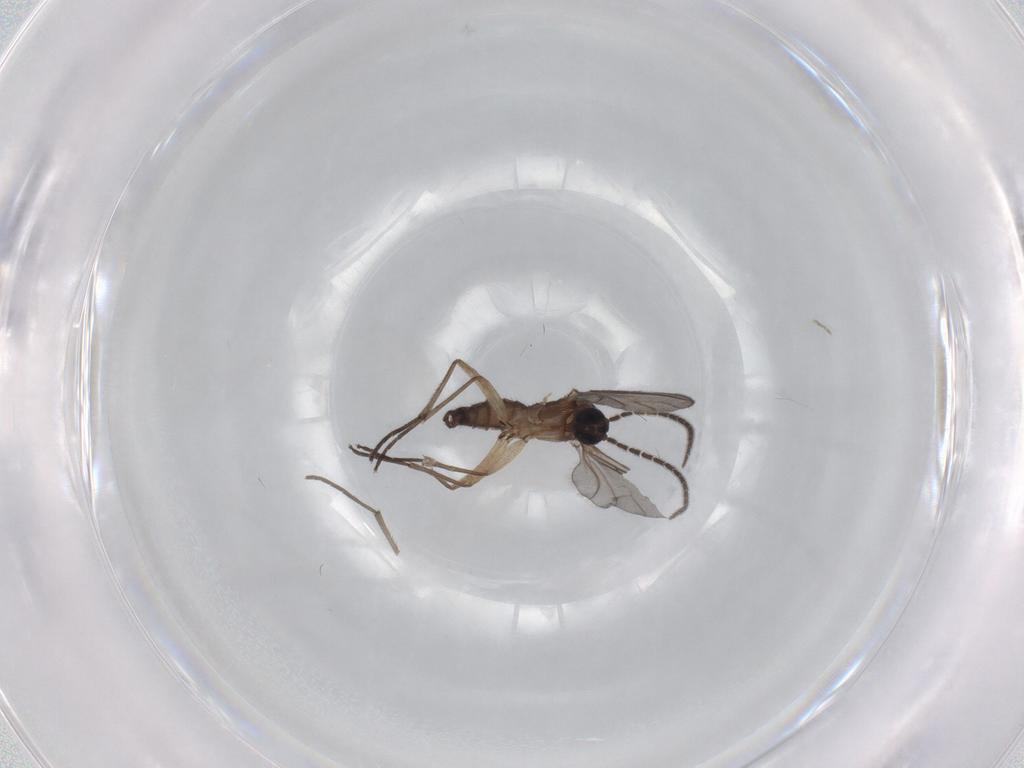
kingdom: Animalia
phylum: Arthropoda
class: Insecta
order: Diptera
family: Sciaridae
